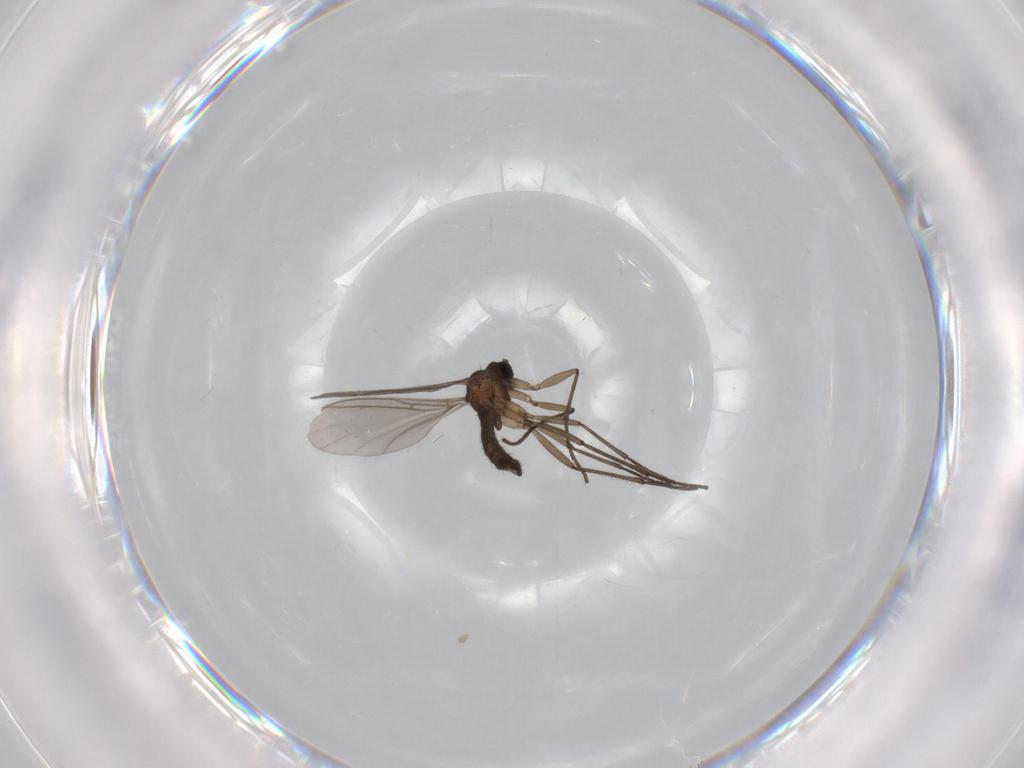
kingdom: Animalia
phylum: Arthropoda
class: Insecta
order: Diptera
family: Sciaridae
